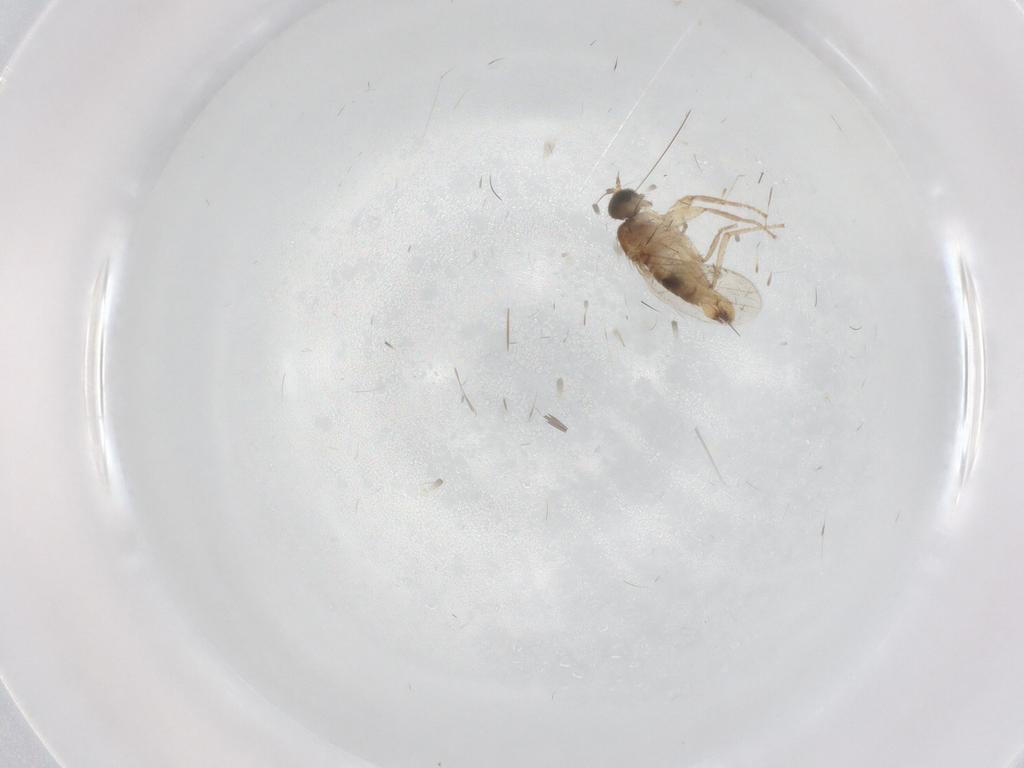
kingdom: Animalia
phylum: Arthropoda
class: Insecta
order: Diptera
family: Hybotidae
